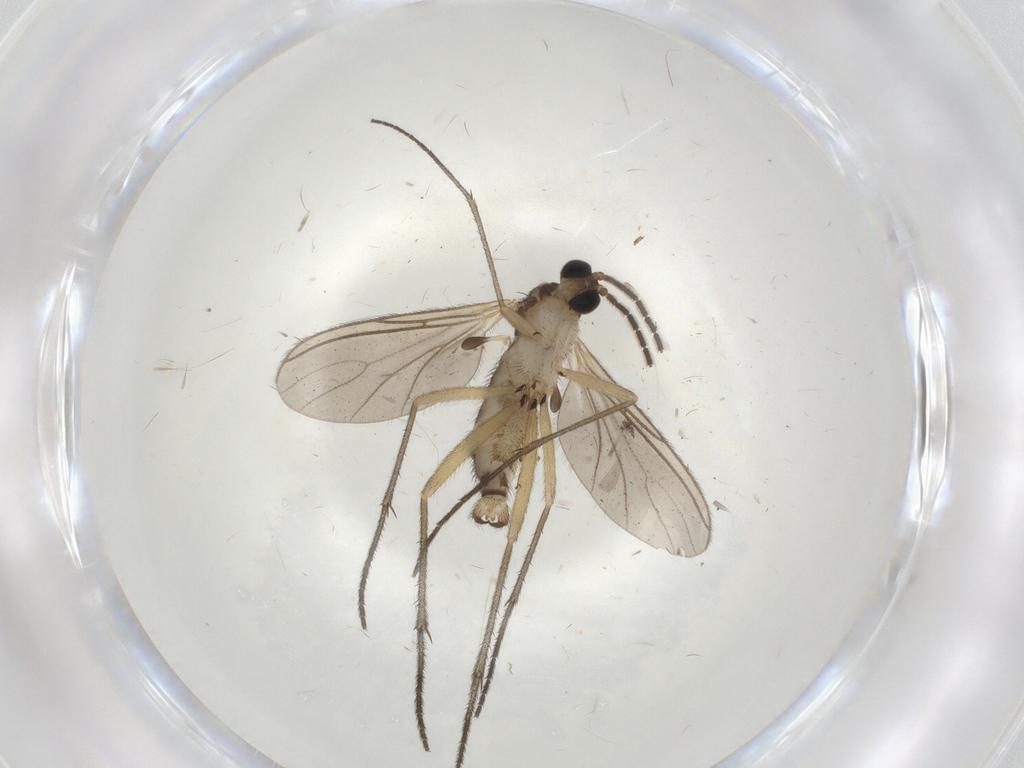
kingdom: Animalia
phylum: Arthropoda
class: Insecta
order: Diptera
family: Sciaridae
